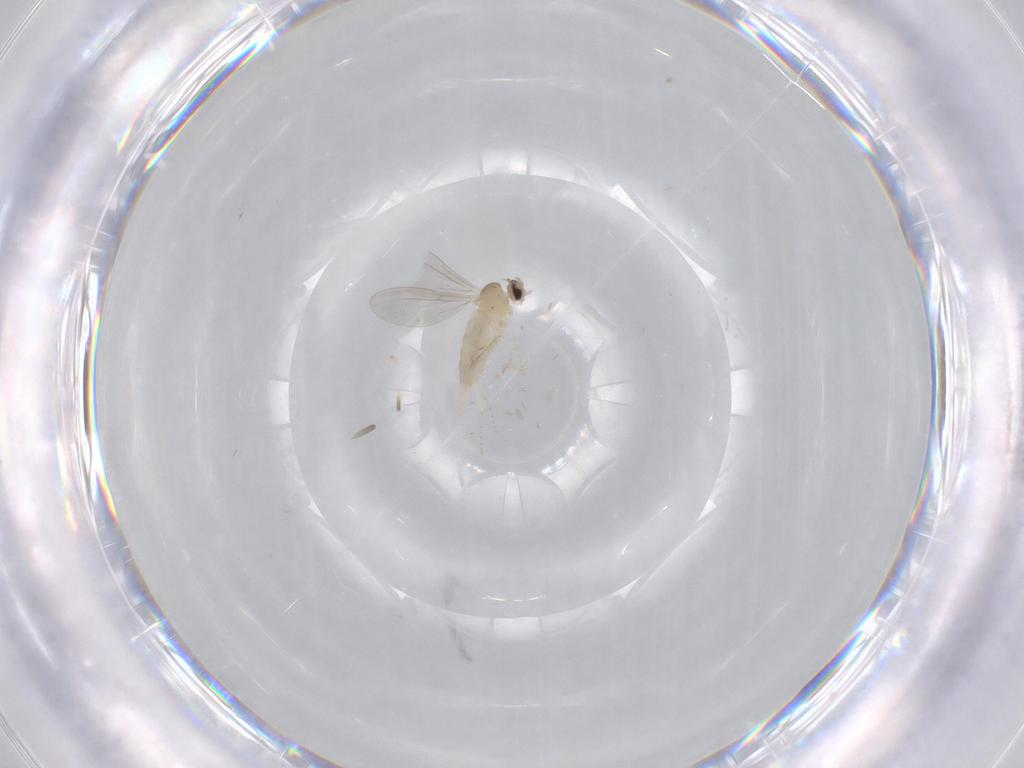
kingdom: Animalia
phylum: Arthropoda
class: Insecta
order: Diptera
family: Cecidomyiidae
